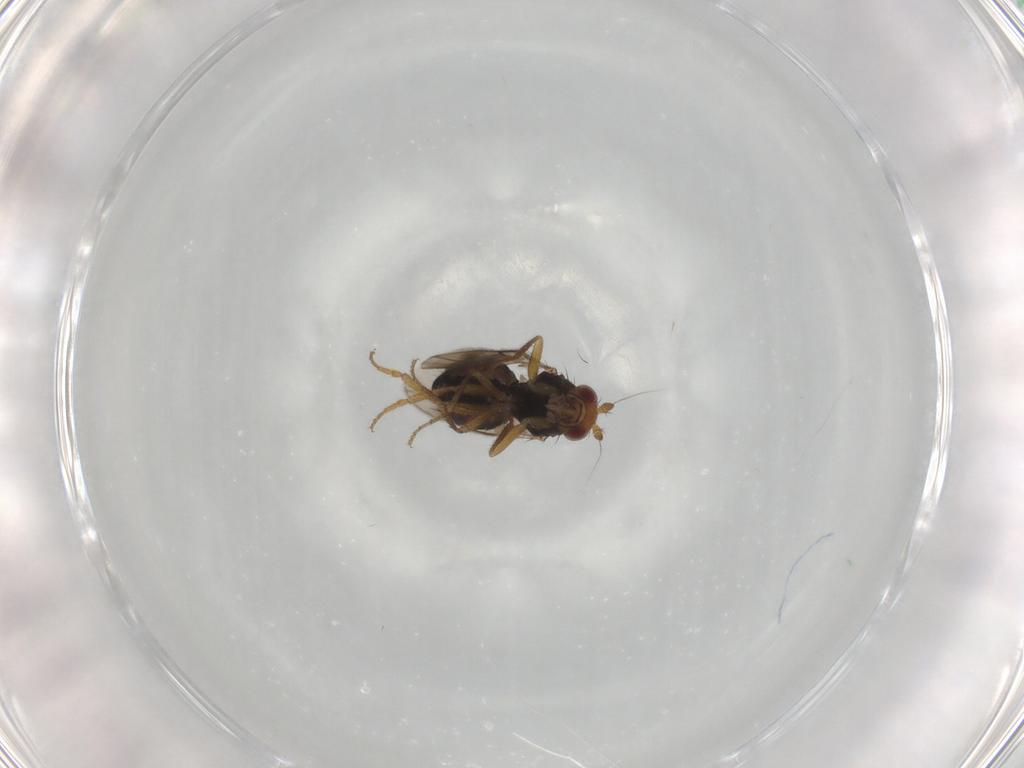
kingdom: Animalia
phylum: Arthropoda
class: Insecta
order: Diptera
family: Sphaeroceridae
